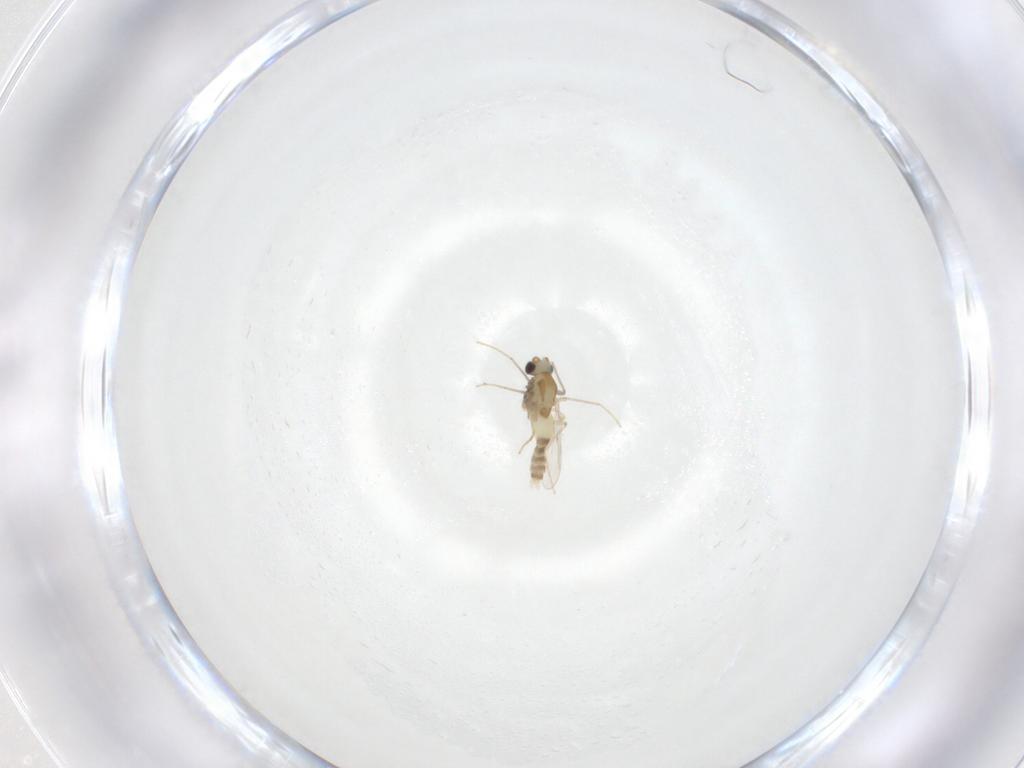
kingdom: Animalia
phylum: Arthropoda
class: Insecta
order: Diptera
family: Chironomidae
